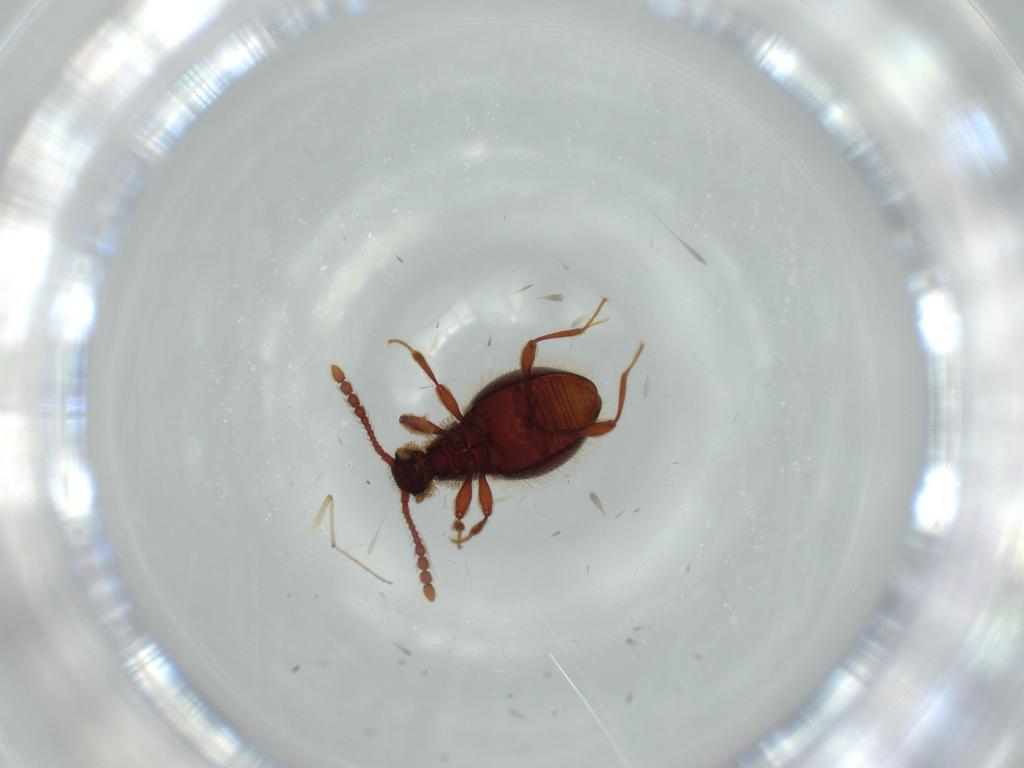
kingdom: Animalia
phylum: Arthropoda
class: Insecta
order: Coleoptera
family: Staphylinidae
